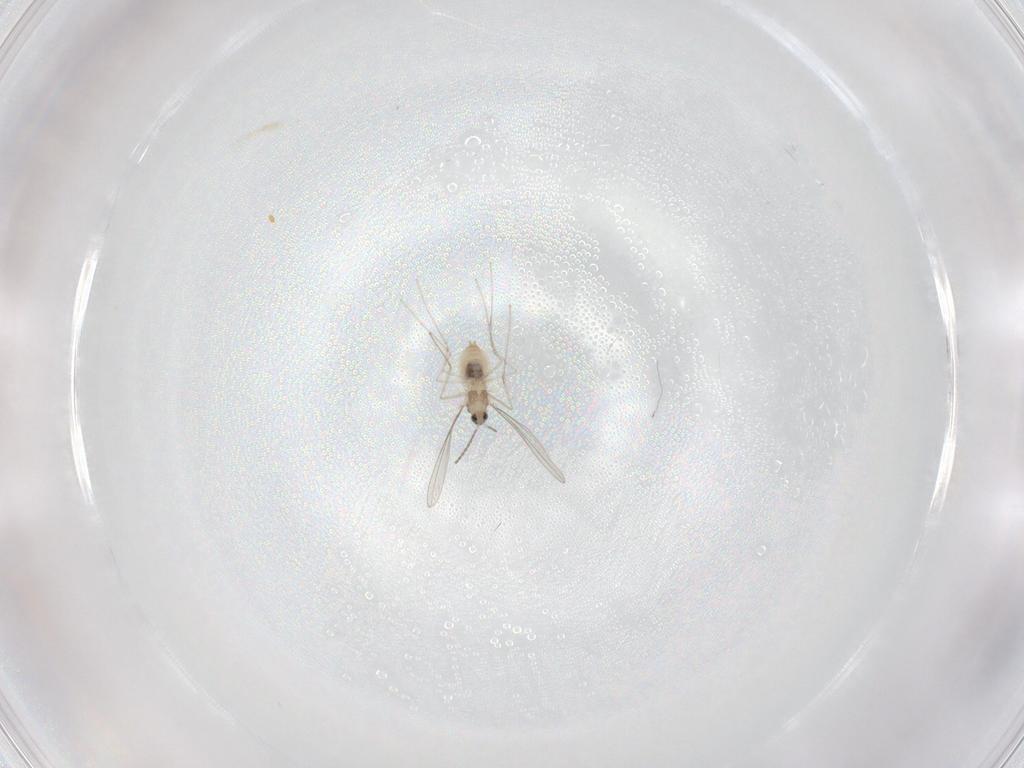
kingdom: Animalia
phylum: Arthropoda
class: Insecta
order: Diptera
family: Cecidomyiidae
